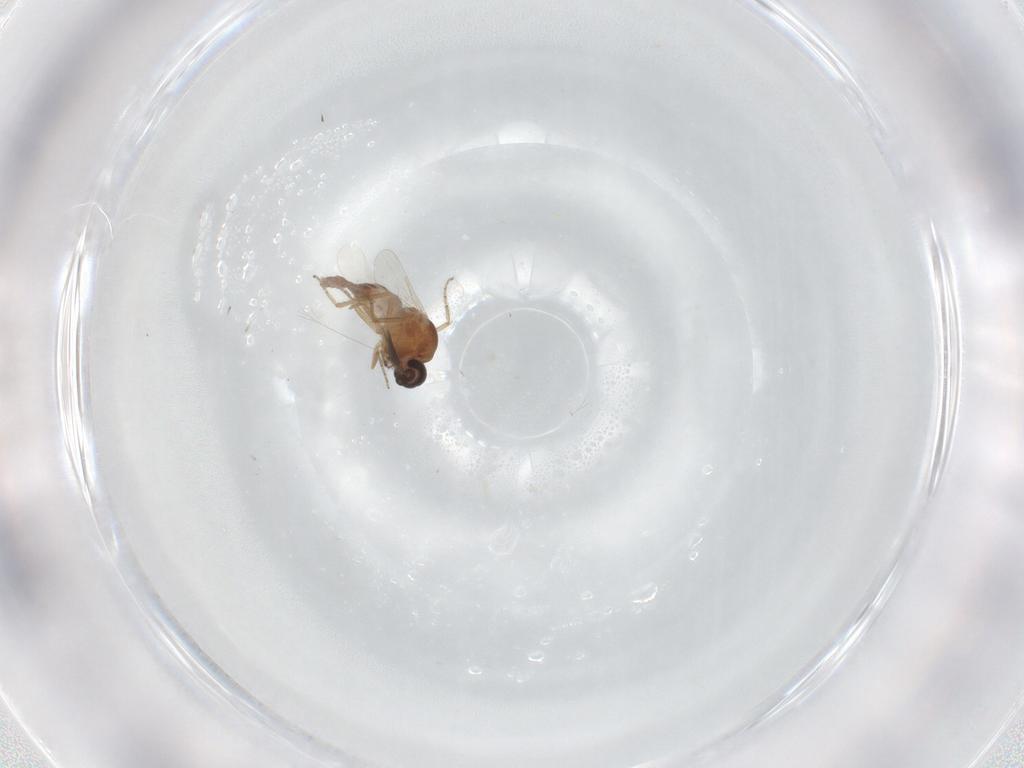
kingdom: Animalia
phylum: Arthropoda
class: Insecta
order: Diptera
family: Ceratopogonidae
